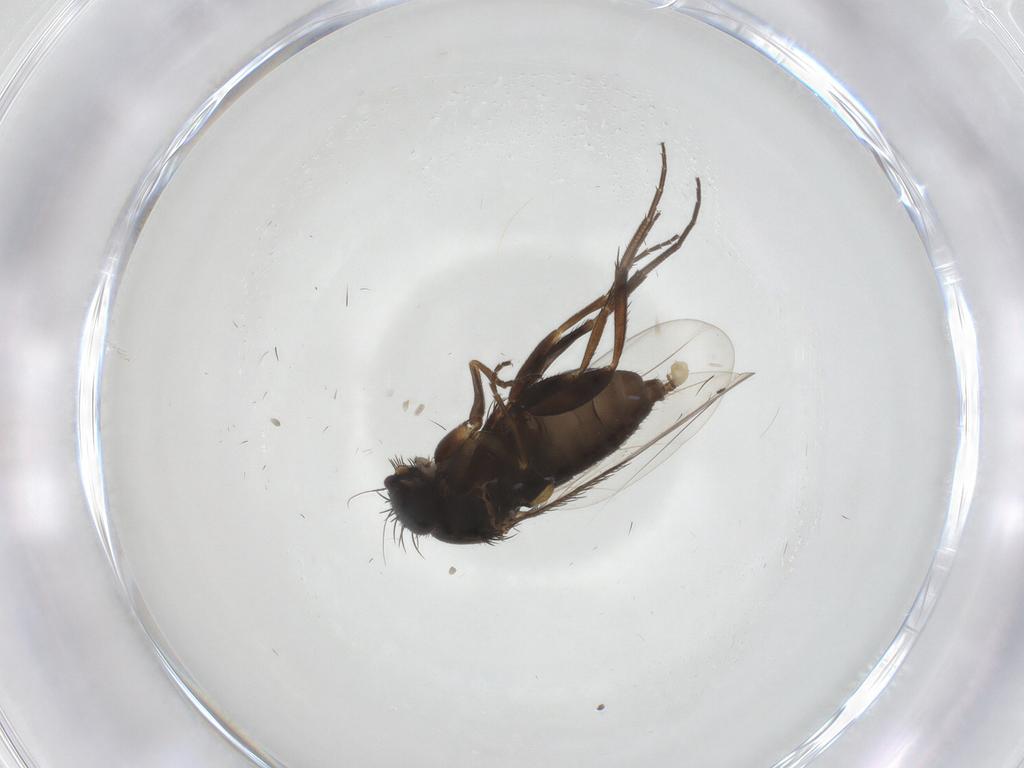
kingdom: Animalia
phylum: Arthropoda
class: Insecta
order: Diptera
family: Phoridae
